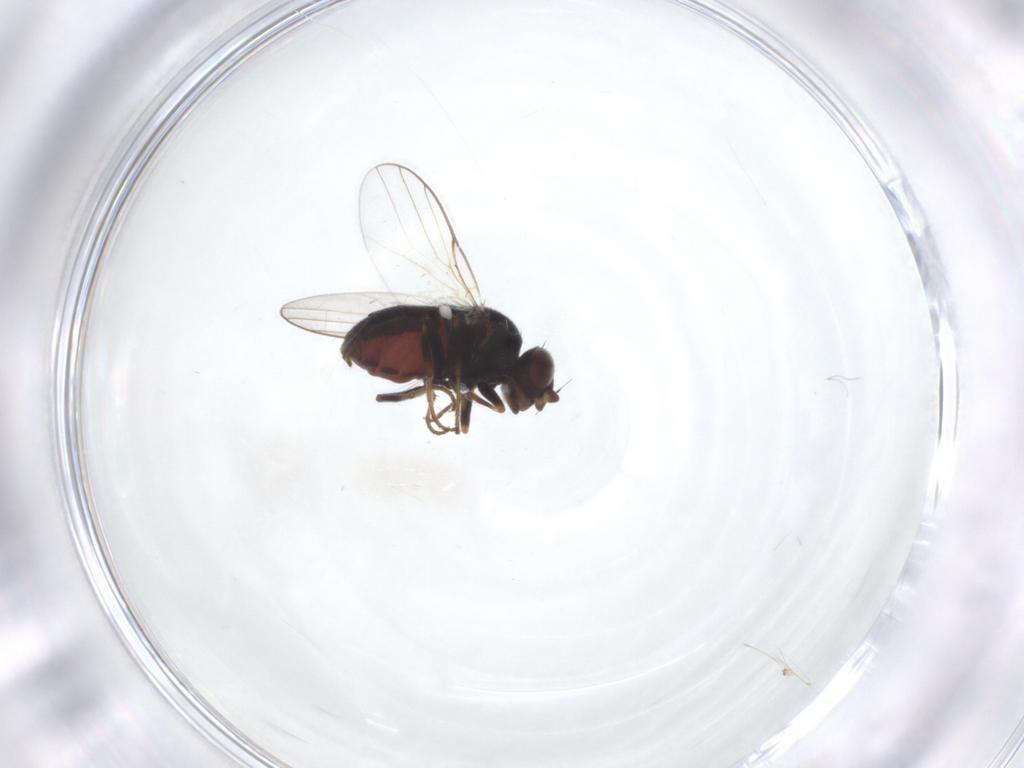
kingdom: Animalia
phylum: Arthropoda
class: Insecta
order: Diptera
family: Chloropidae
